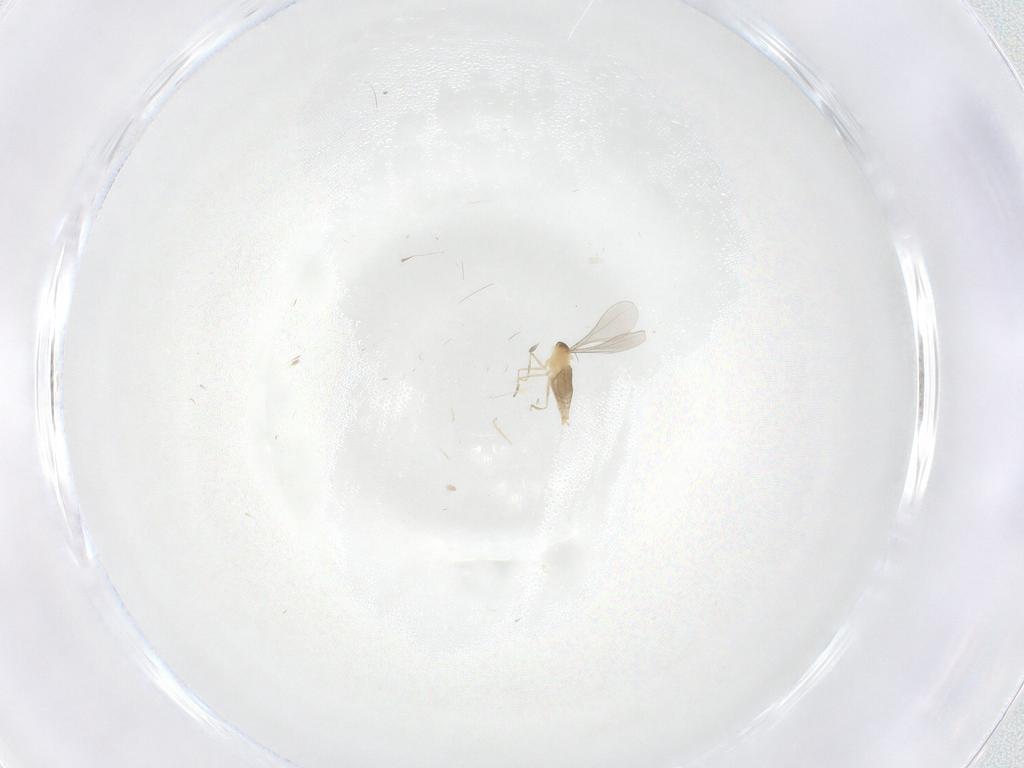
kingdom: Animalia
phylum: Arthropoda
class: Insecta
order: Diptera
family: Cecidomyiidae
